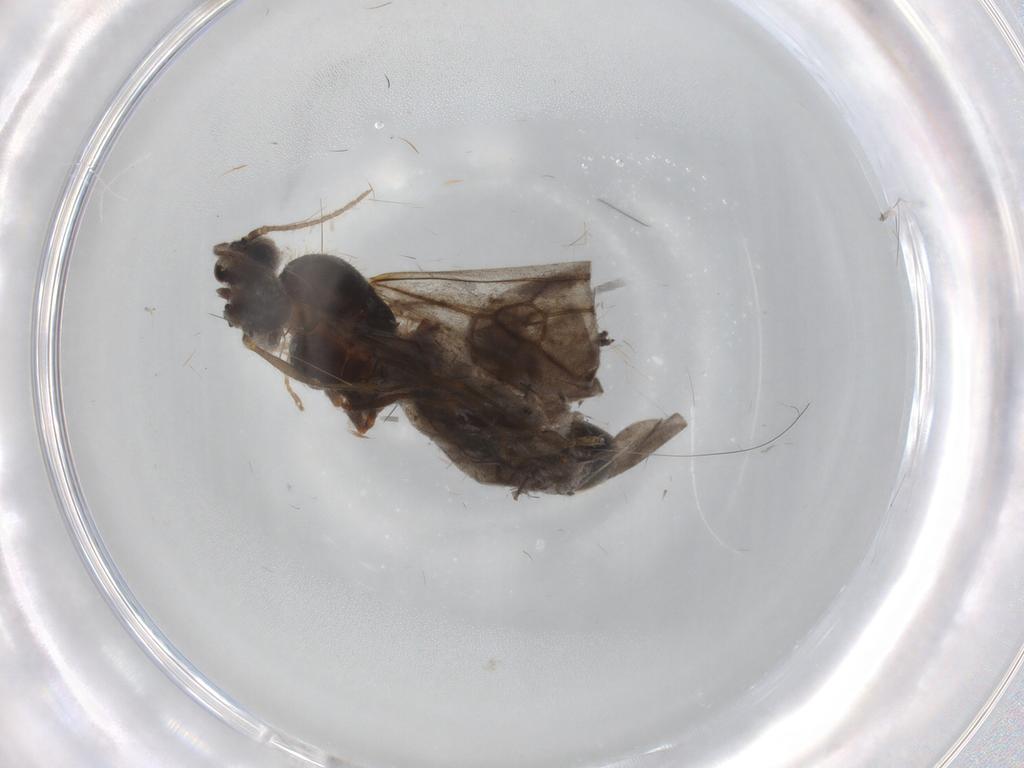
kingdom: Animalia
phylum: Arthropoda
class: Insecta
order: Hymenoptera
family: Formicidae
